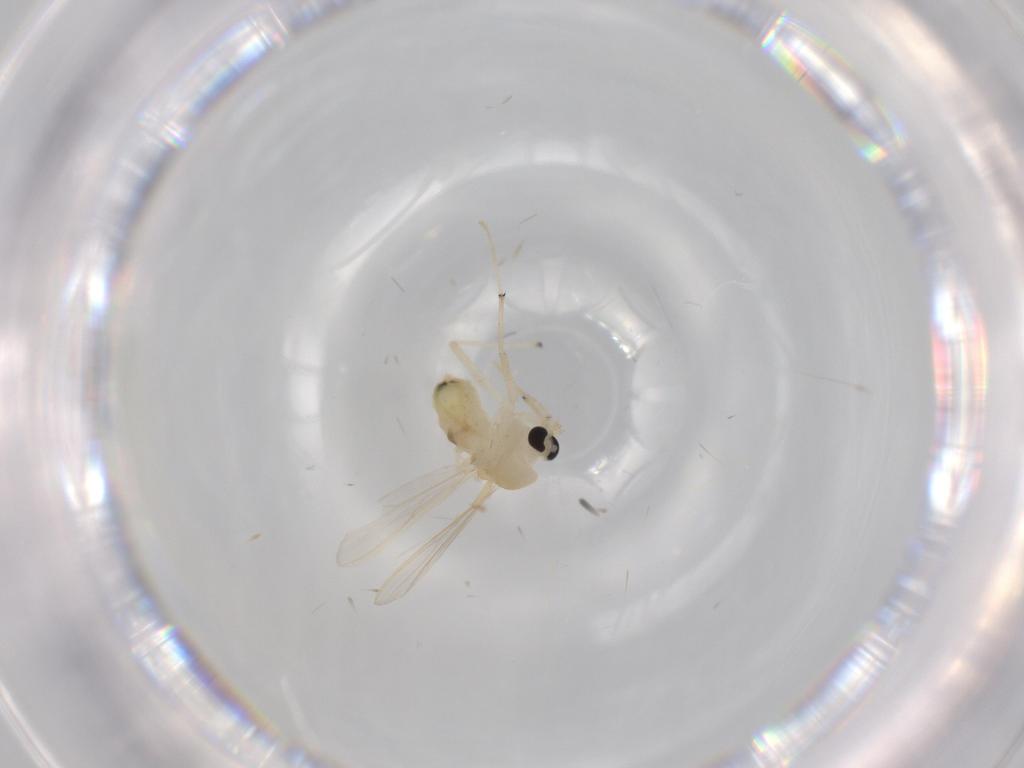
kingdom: Animalia
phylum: Arthropoda
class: Insecta
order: Diptera
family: Chironomidae
